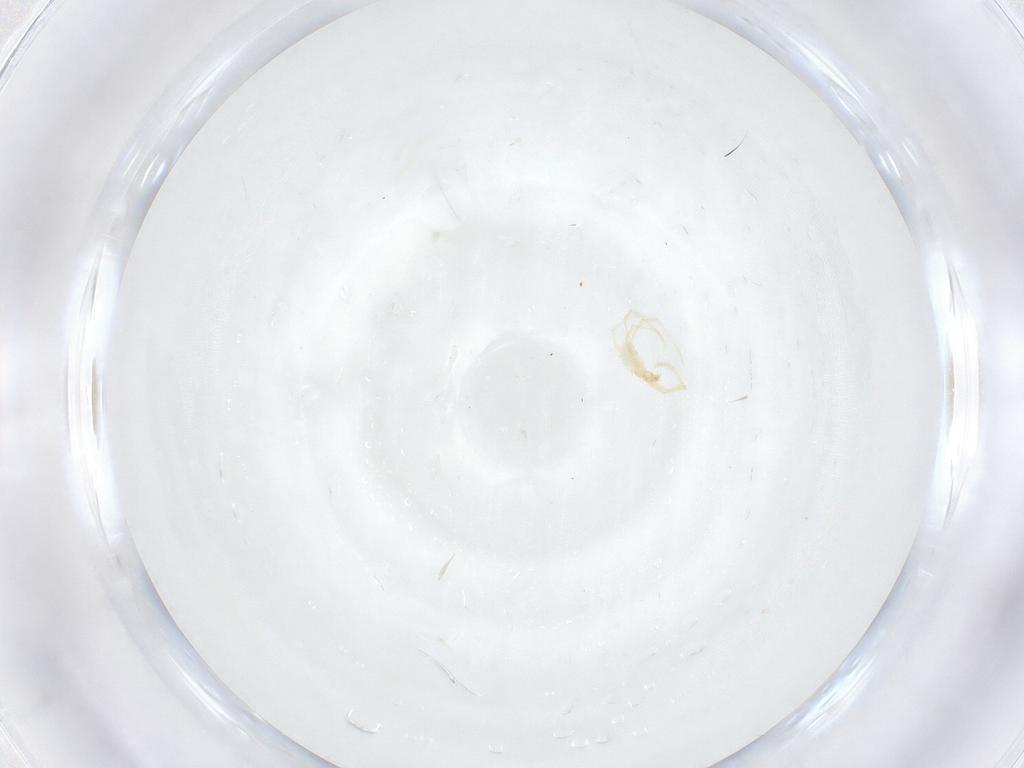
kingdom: Animalia
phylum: Arthropoda
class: Arachnida
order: Trombidiformes
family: Erythraeidae
